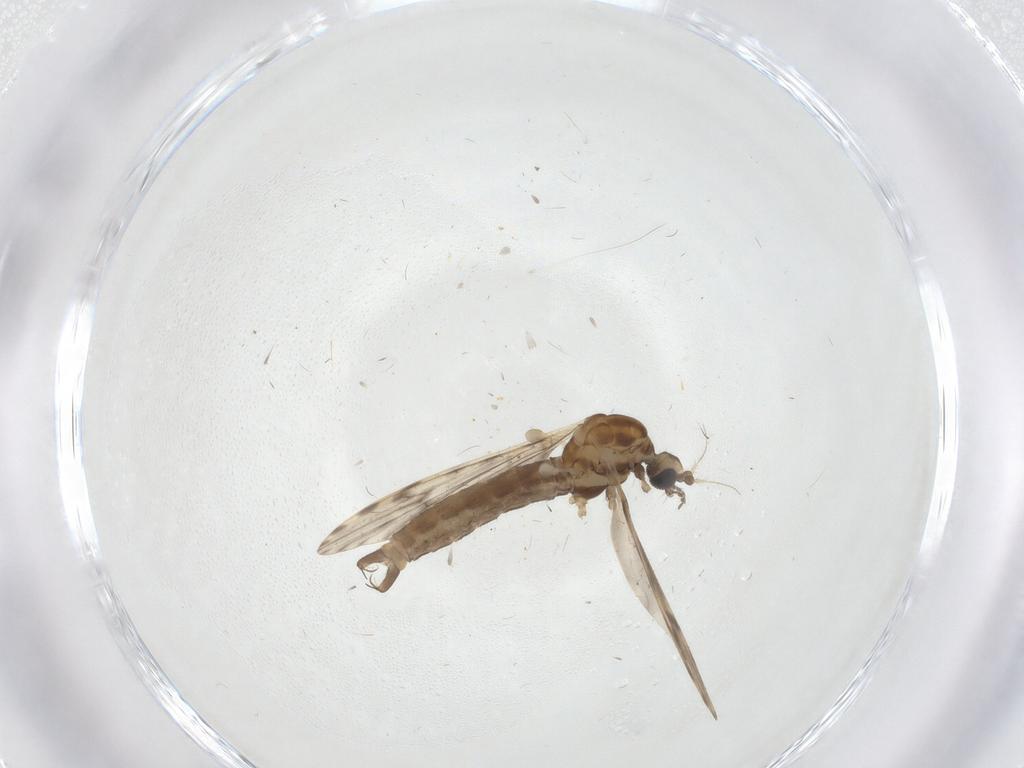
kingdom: Animalia
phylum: Arthropoda
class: Insecta
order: Diptera
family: Limoniidae
